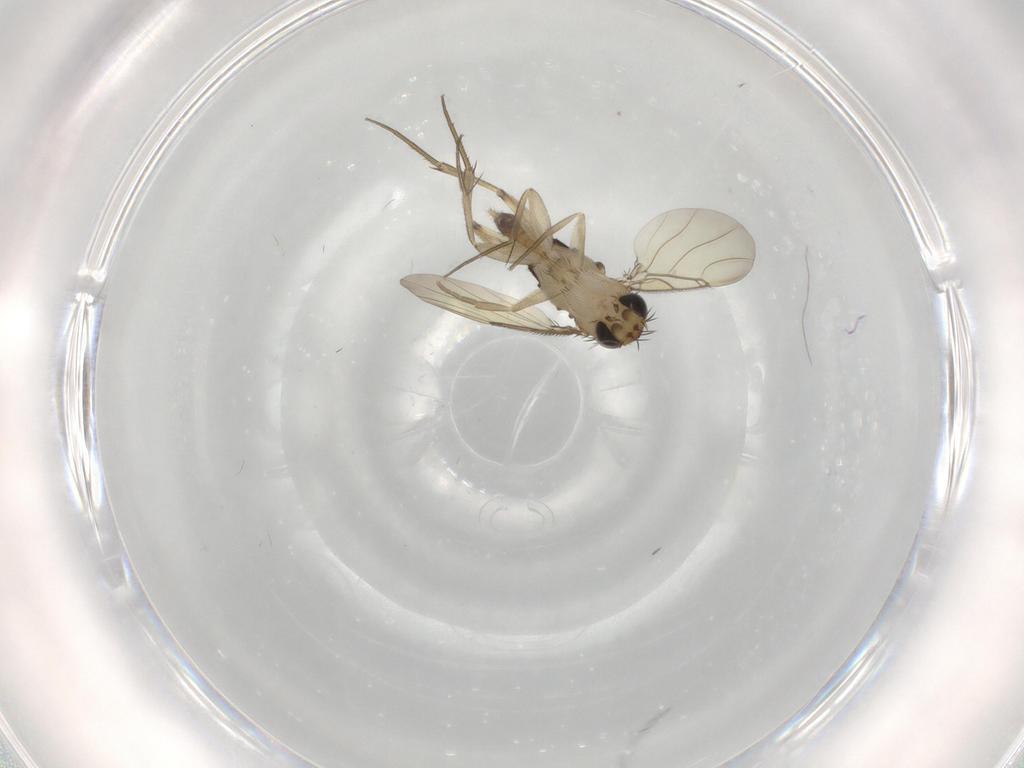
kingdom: Animalia
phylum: Arthropoda
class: Insecta
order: Diptera
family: Phoridae
